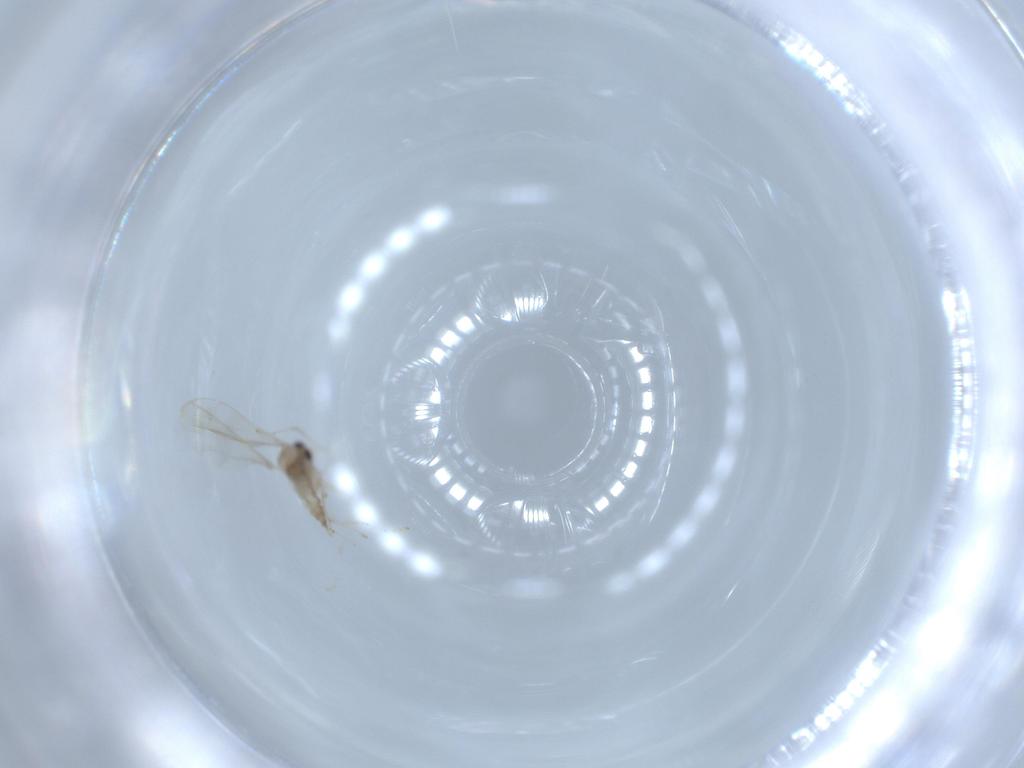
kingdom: Animalia
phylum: Arthropoda
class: Insecta
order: Diptera
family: Cecidomyiidae
